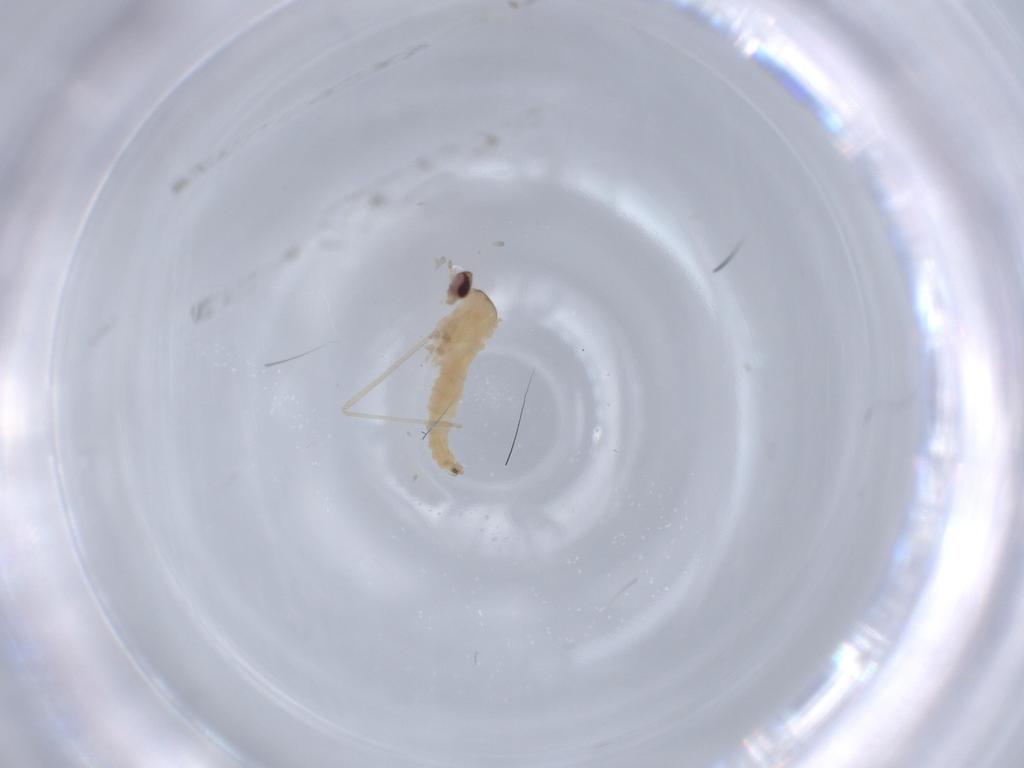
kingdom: Animalia
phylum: Arthropoda
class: Insecta
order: Diptera
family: Cecidomyiidae
